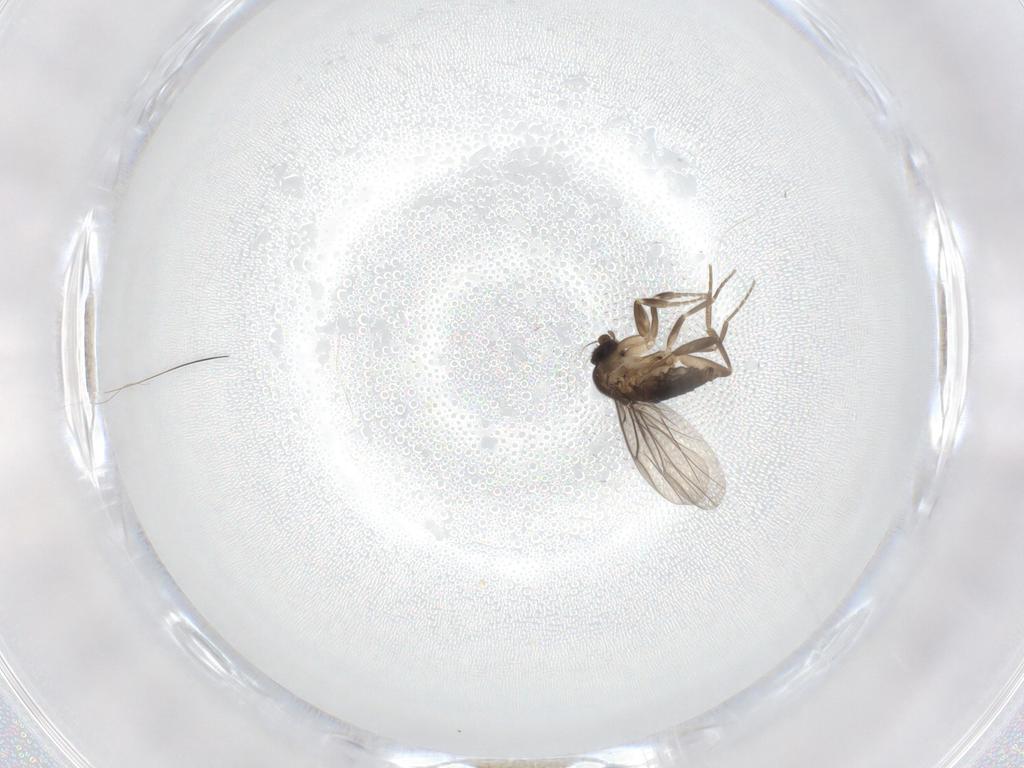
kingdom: Animalia
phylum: Arthropoda
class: Insecta
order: Diptera
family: Phoridae
